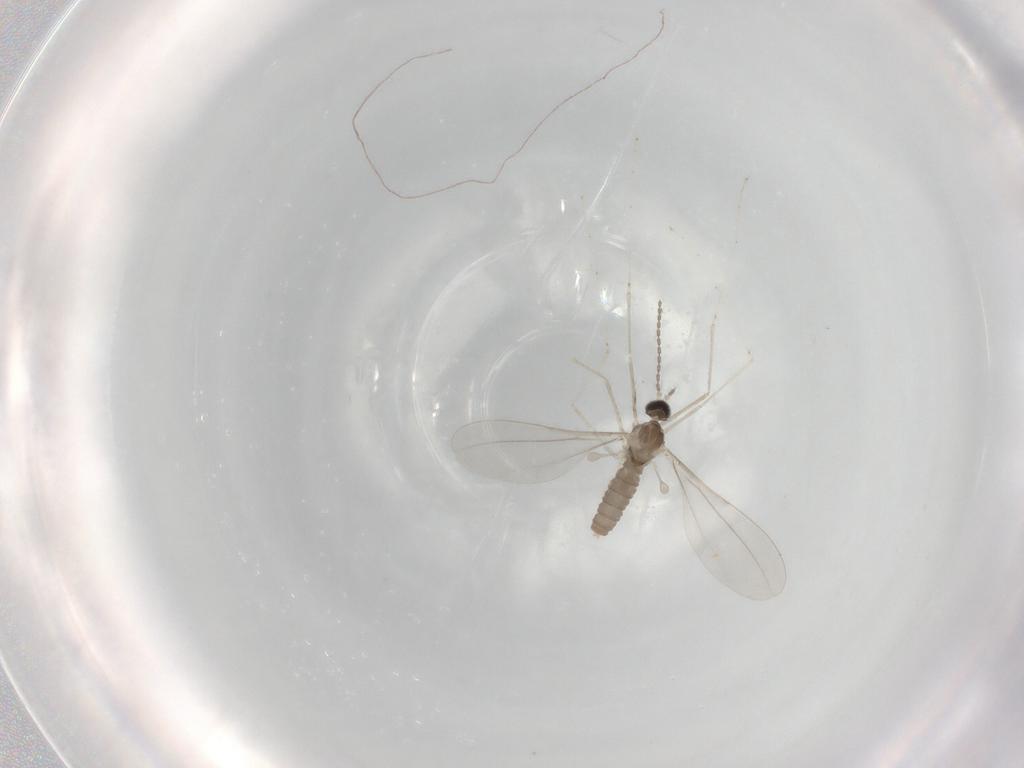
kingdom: Animalia
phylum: Arthropoda
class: Insecta
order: Diptera
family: Cecidomyiidae
